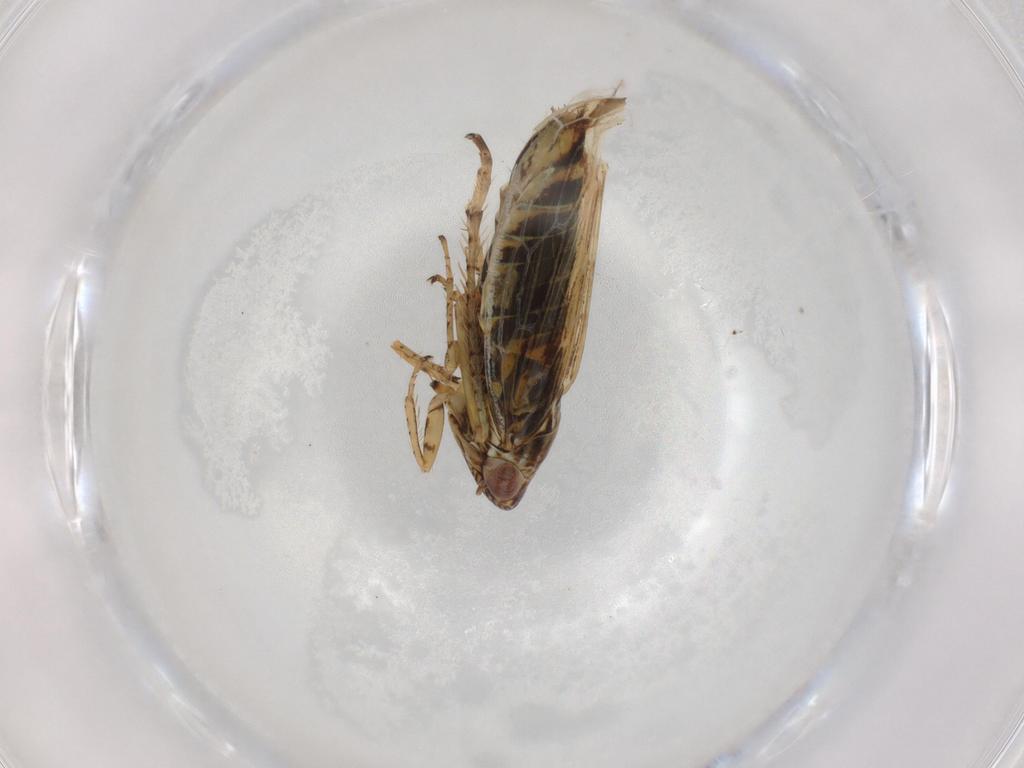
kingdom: Animalia
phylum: Arthropoda
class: Insecta
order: Hemiptera
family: Cicadellidae
